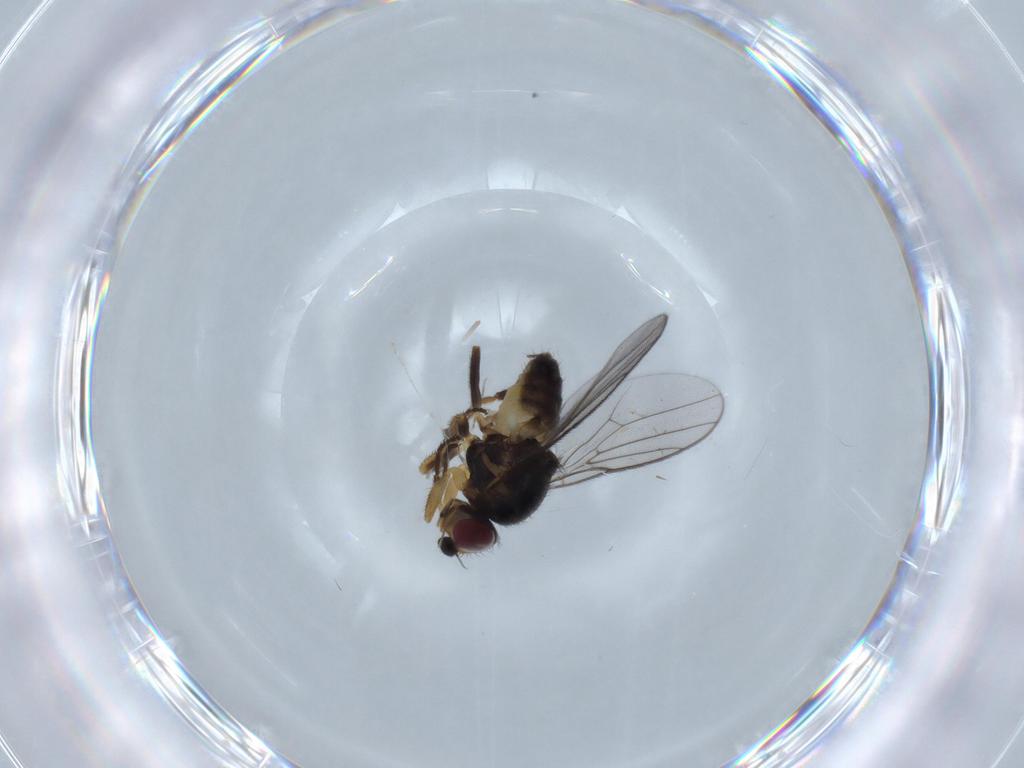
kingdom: Animalia
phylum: Arthropoda
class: Insecta
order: Diptera
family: Chloropidae
